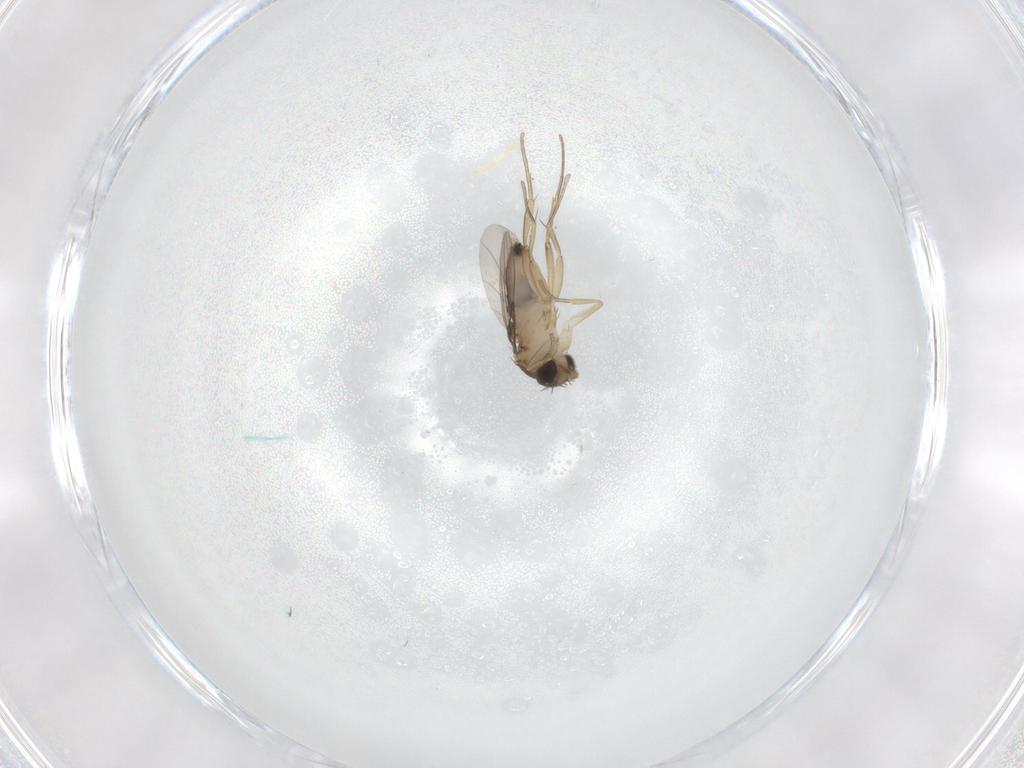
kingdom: Animalia
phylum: Arthropoda
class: Insecta
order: Diptera
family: Phoridae
